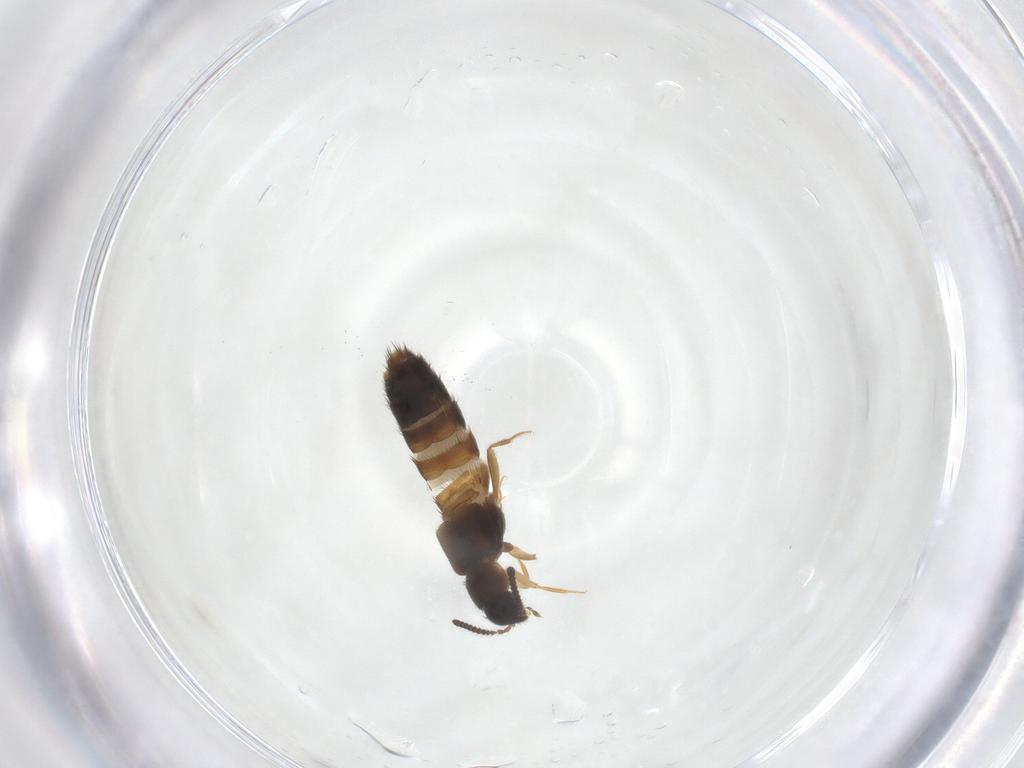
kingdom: Animalia
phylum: Arthropoda
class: Insecta
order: Coleoptera
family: Staphylinidae
